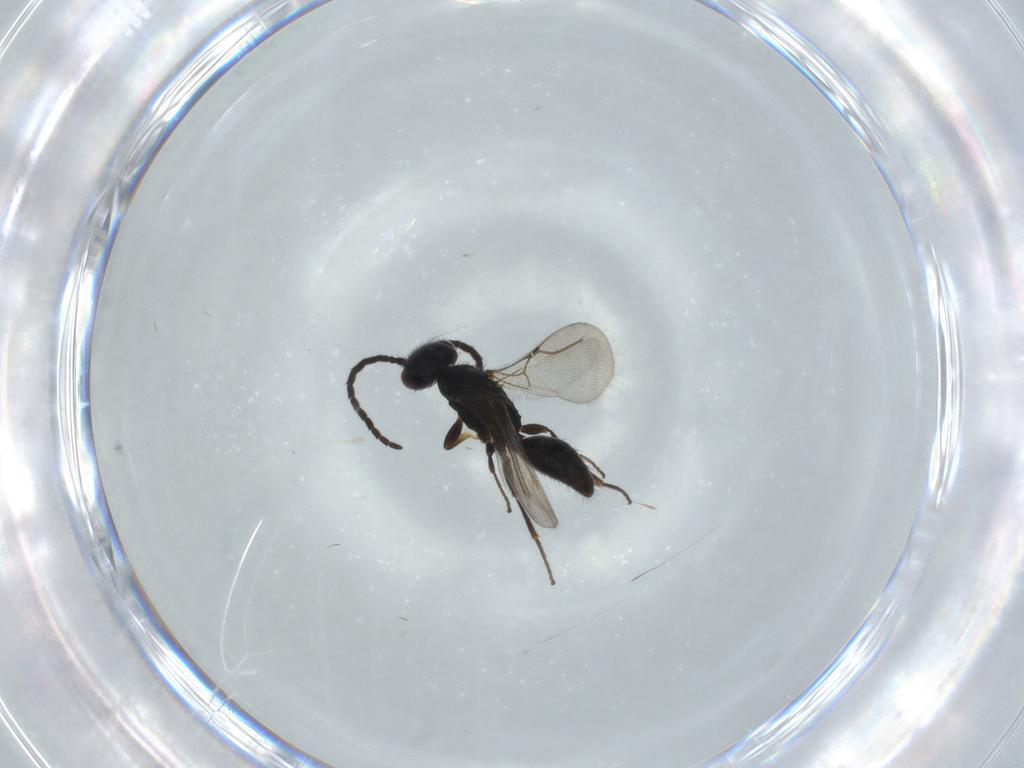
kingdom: Animalia
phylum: Arthropoda
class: Insecta
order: Hymenoptera
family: Bethylidae
